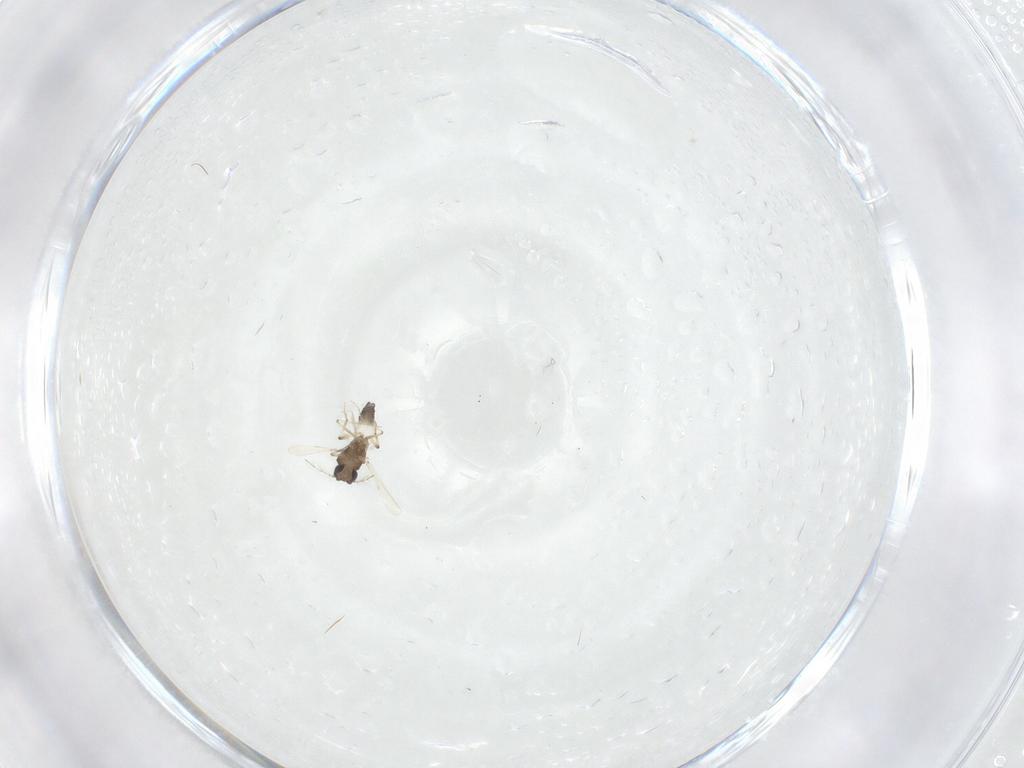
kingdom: Animalia
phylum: Arthropoda
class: Insecta
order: Diptera
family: Ceratopogonidae
